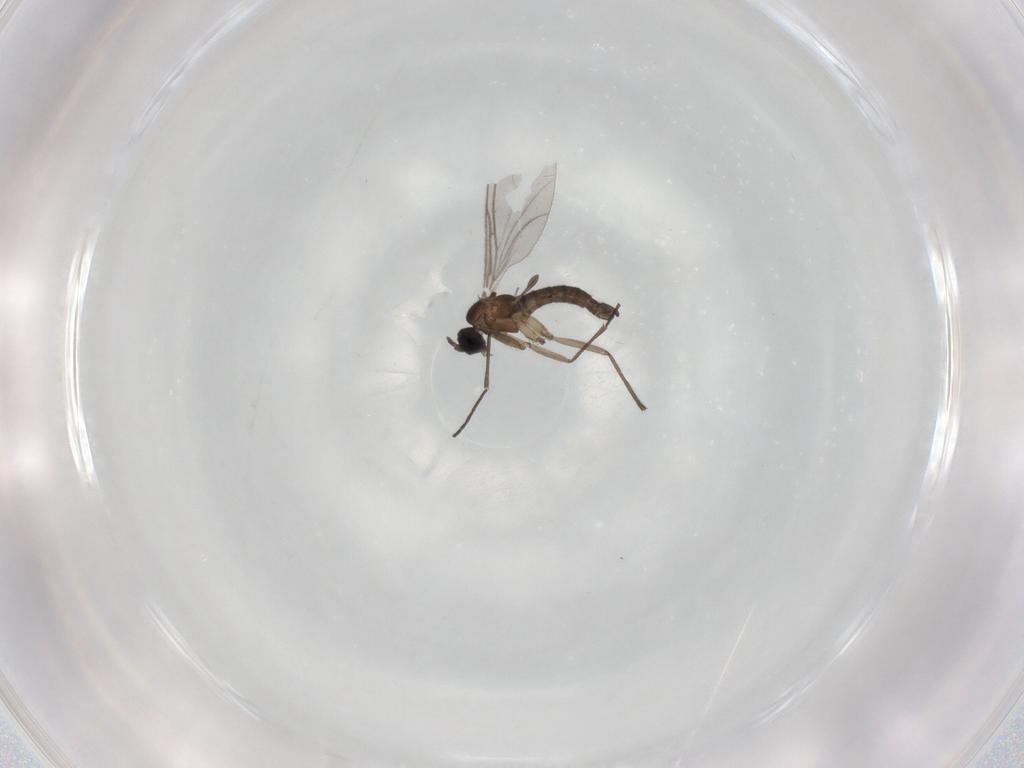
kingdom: Animalia
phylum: Arthropoda
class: Insecta
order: Diptera
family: Sciaridae
